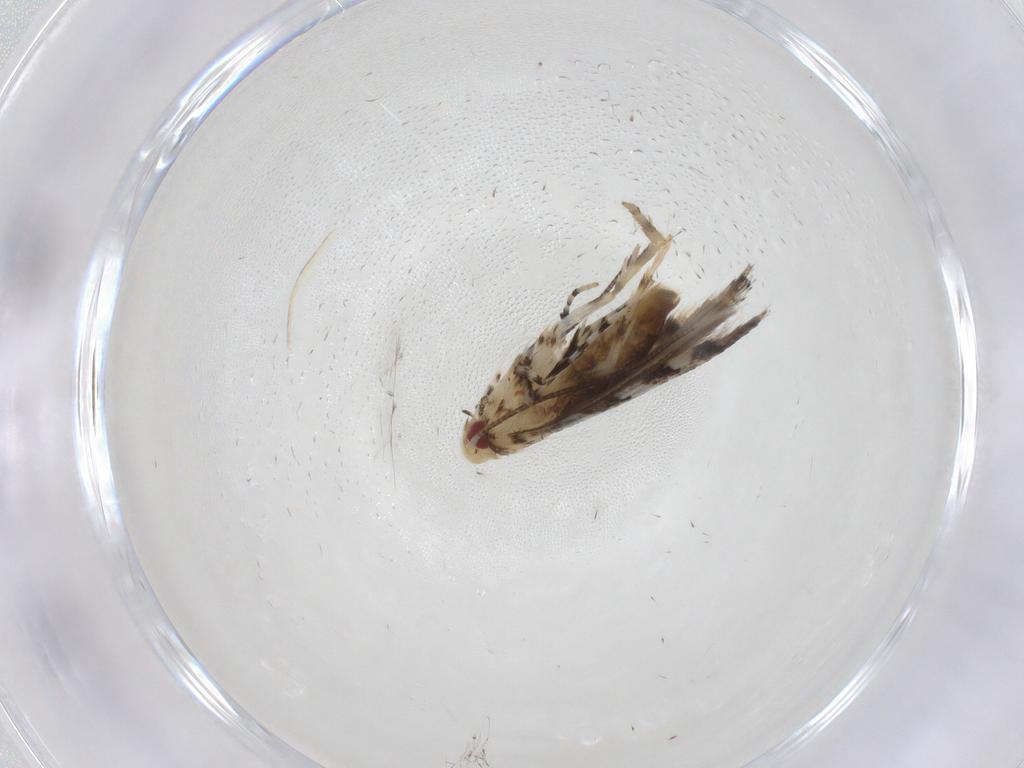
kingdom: Animalia
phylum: Arthropoda
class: Insecta
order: Lepidoptera
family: Gracillariidae
